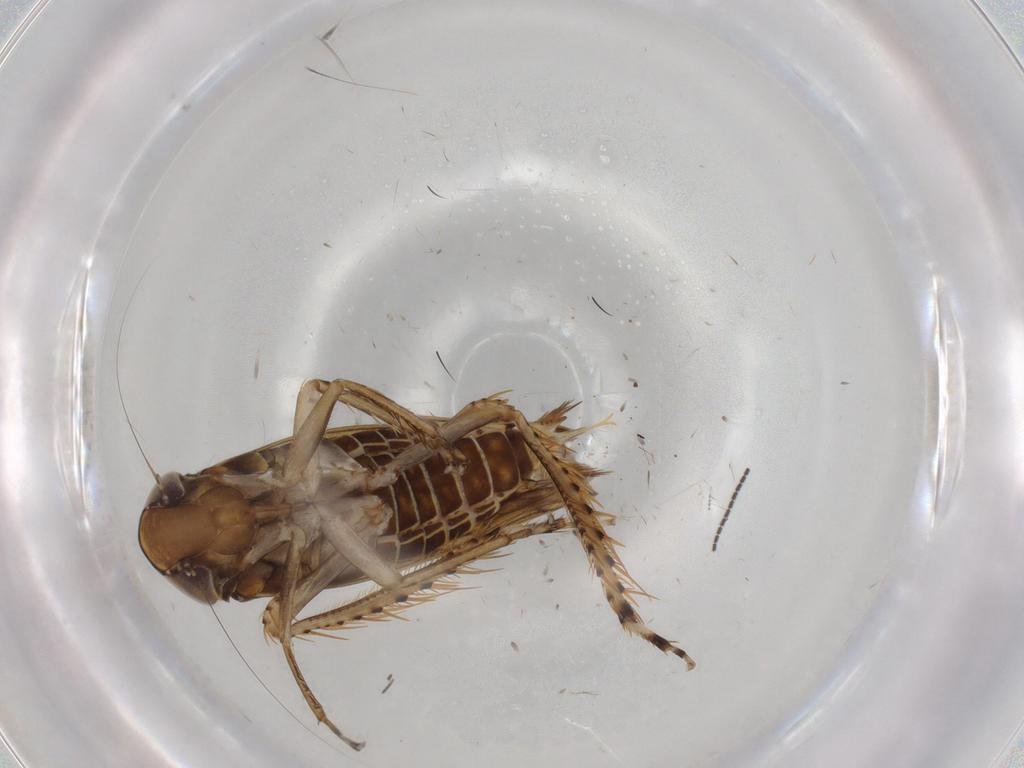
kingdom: Animalia
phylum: Arthropoda
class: Insecta
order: Hemiptera
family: Cicadellidae
